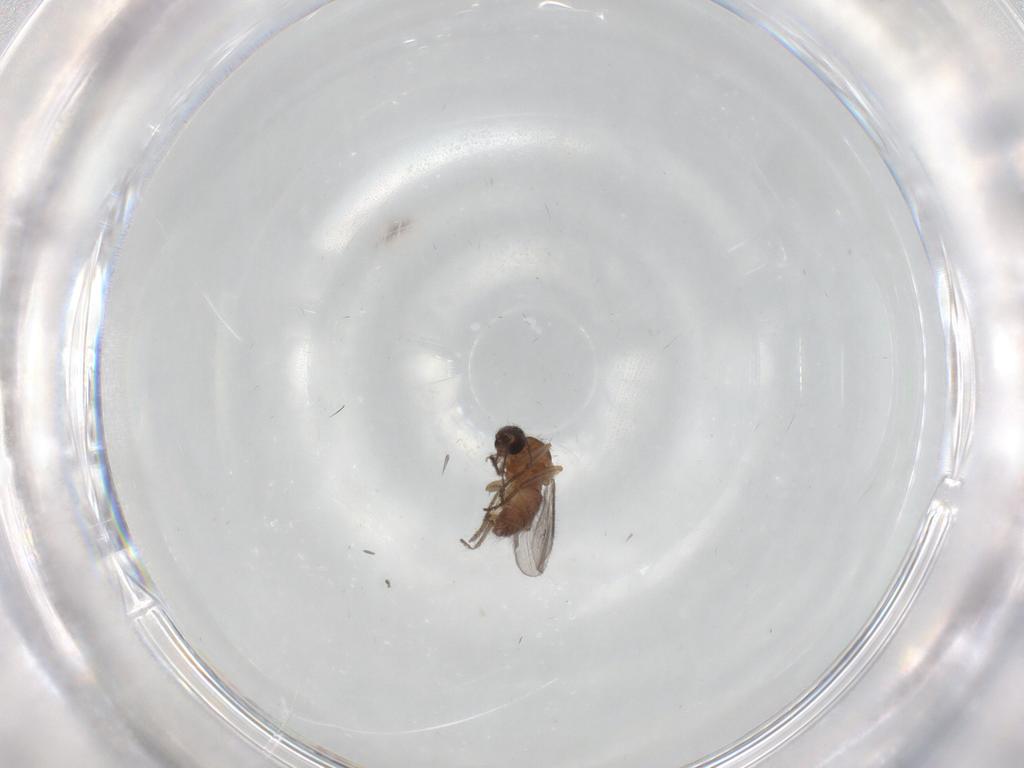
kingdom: Animalia
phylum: Arthropoda
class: Insecta
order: Diptera
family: Ceratopogonidae
